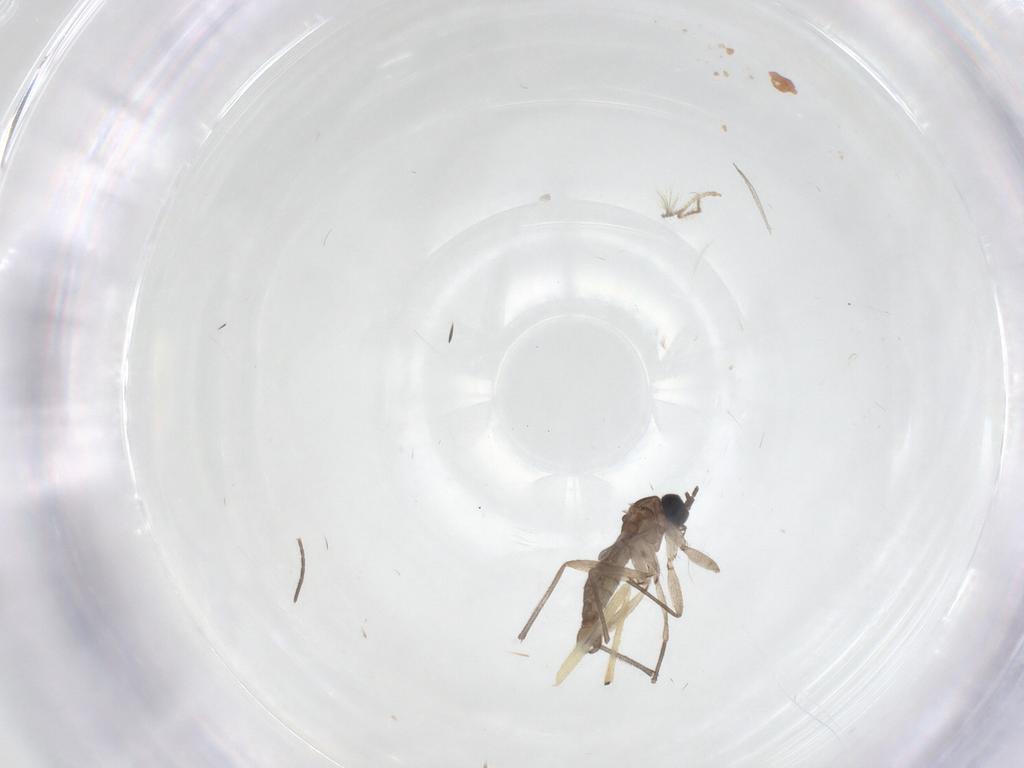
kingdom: Animalia
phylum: Arthropoda
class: Insecta
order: Diptera
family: Chironomidae
